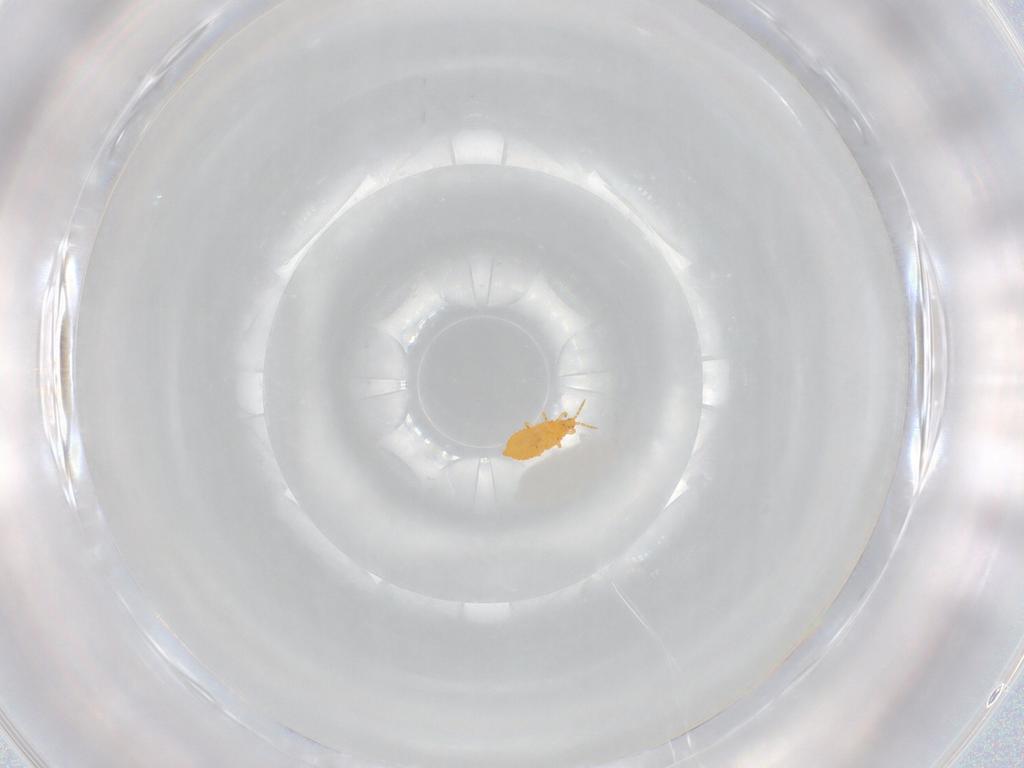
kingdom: Animalia
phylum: Arthropoda
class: Insecta
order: Thysanoptera
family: Heterothripidae
